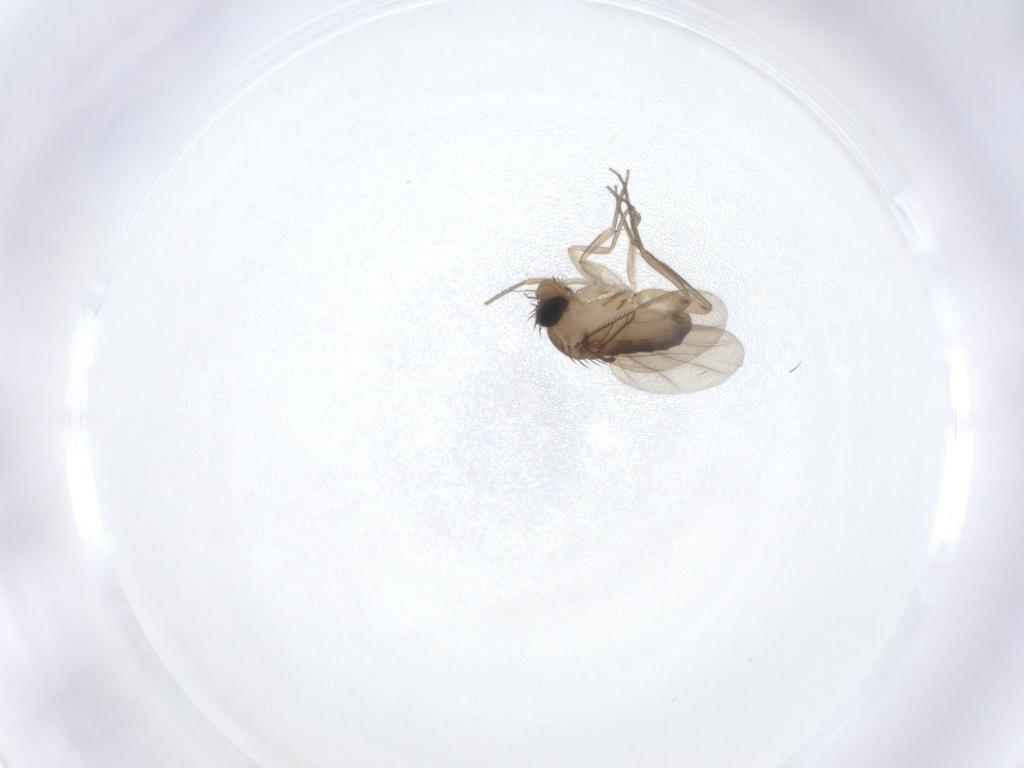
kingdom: Animalia
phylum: Arthropoda
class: Insecta
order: Diptera
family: Phoridae
